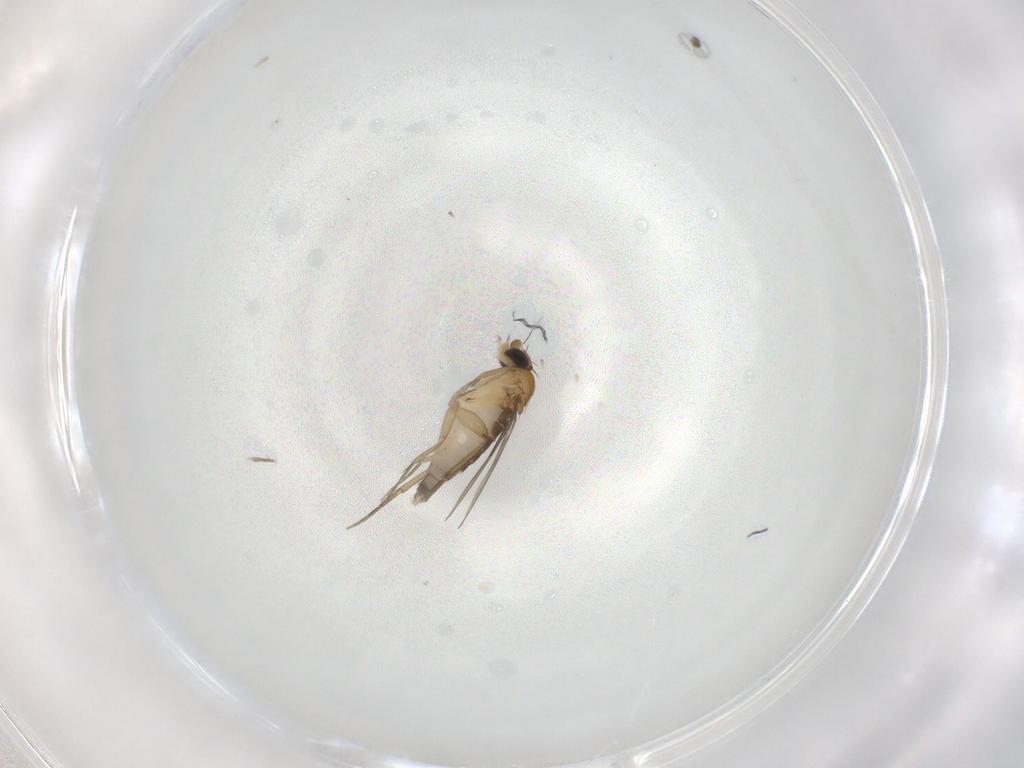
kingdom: Animalia
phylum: Arthropoda
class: Insecta
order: Diptera
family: Phoridae
